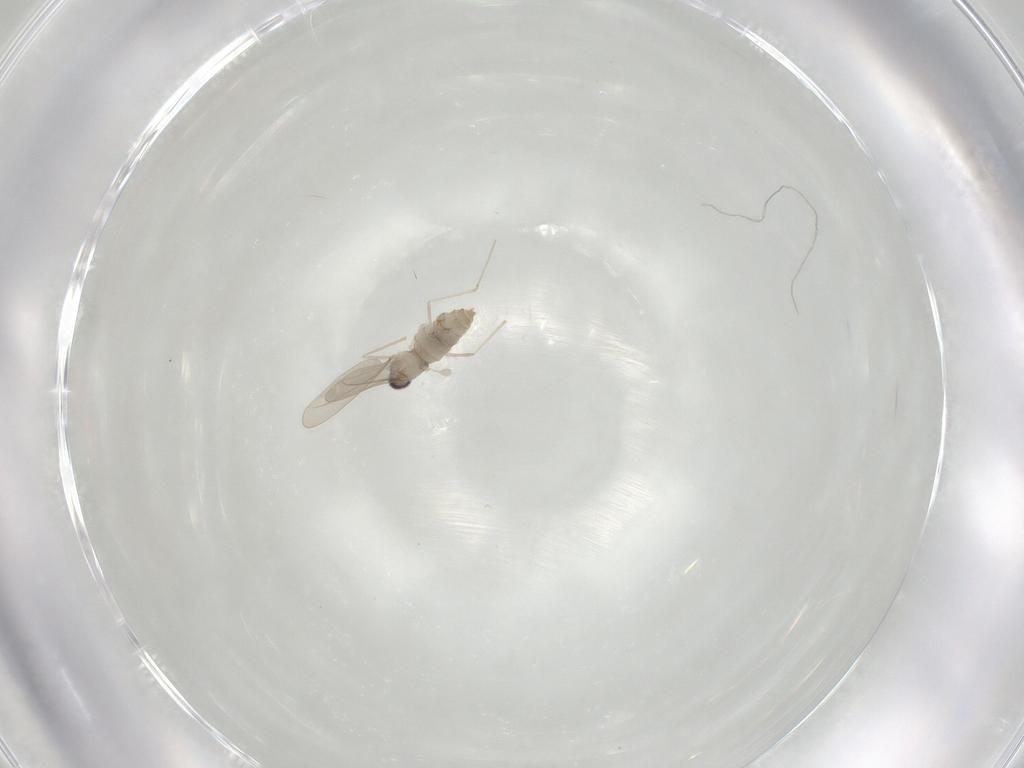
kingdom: Animalia
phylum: Arthropoda
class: Insecta
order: Diptera
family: Cecidomyiidae
